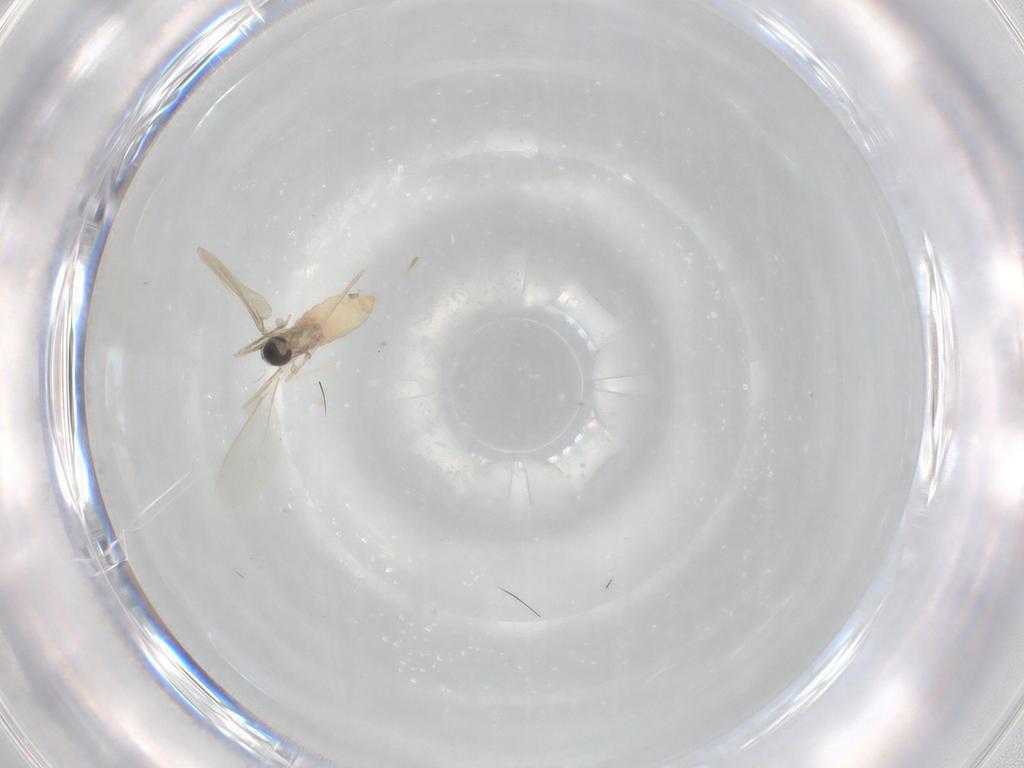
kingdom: Animalia
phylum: Arthropoda
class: Insecta
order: Diptera
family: Cecidomyiidae
